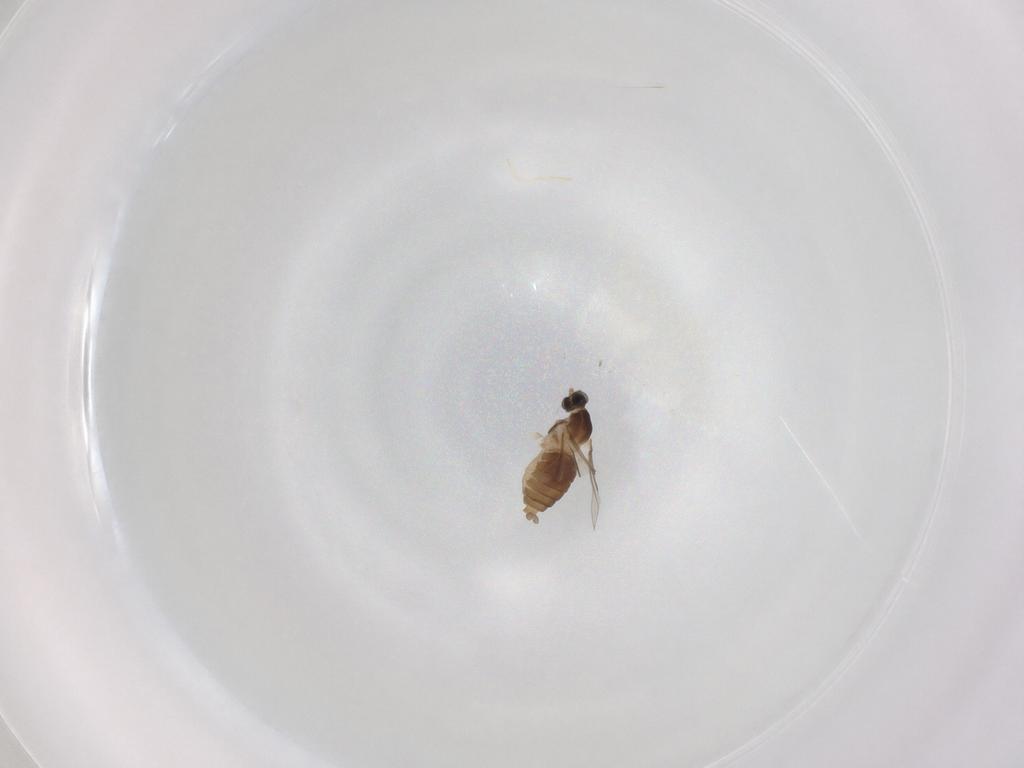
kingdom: Animalia
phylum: Arthropoda
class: Insecta
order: Diptera
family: Cecidomyiidae
